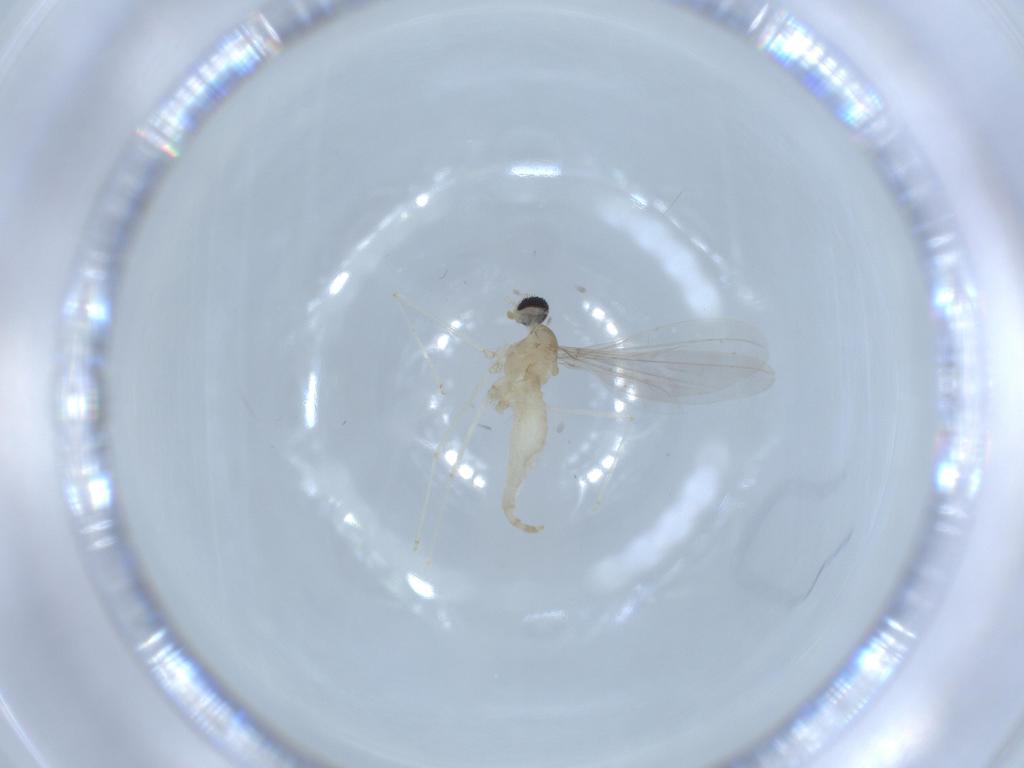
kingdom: Animalia
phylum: Arthropoda
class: Insecta
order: Diptera
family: Cecidomyiidae
